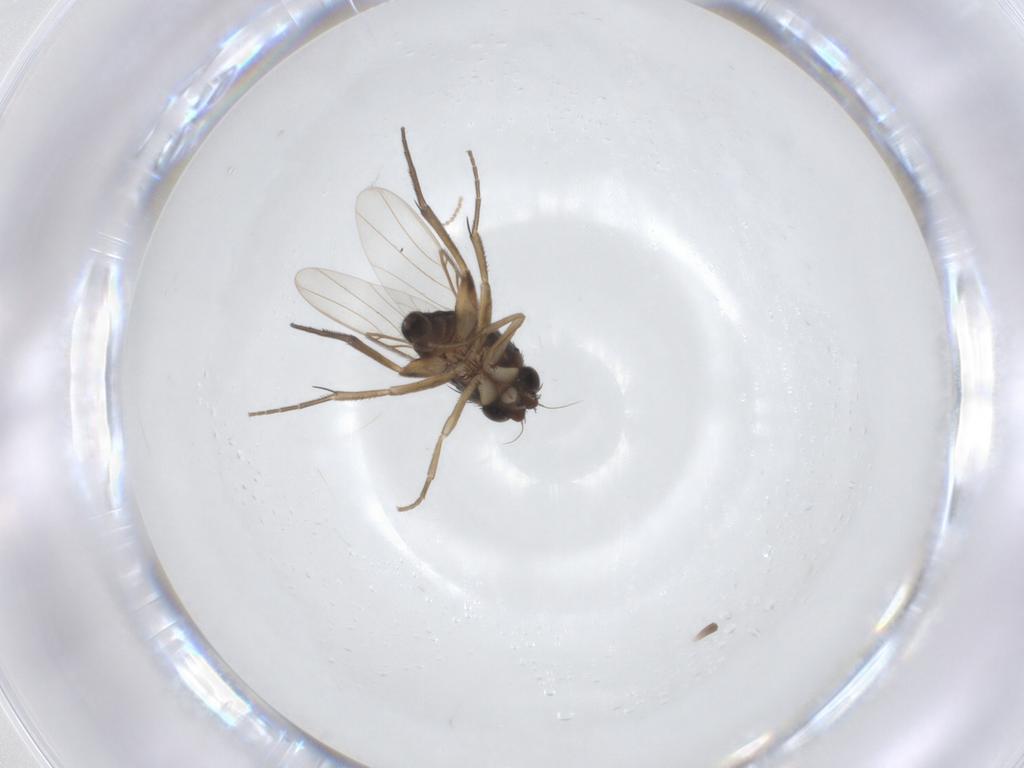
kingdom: Animalia
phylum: Arthropoda
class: Insecta
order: Diptera
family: Phoridae
